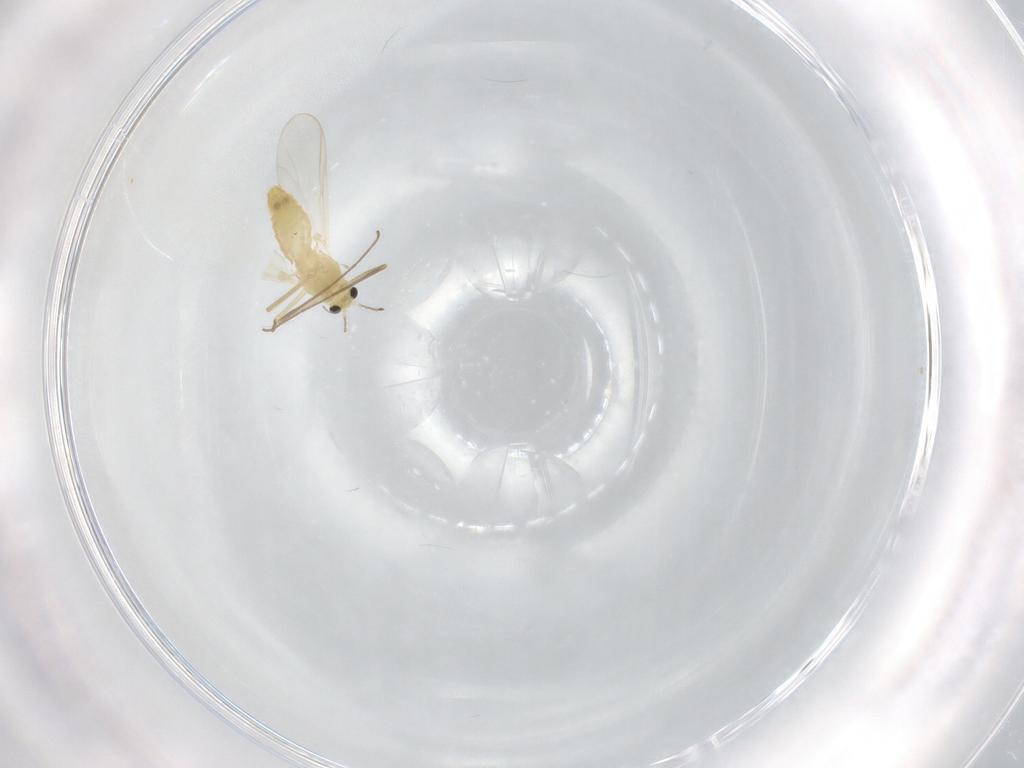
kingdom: Animalia
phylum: Arthropoda
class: Insecta
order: Diptera
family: Chironomidae
